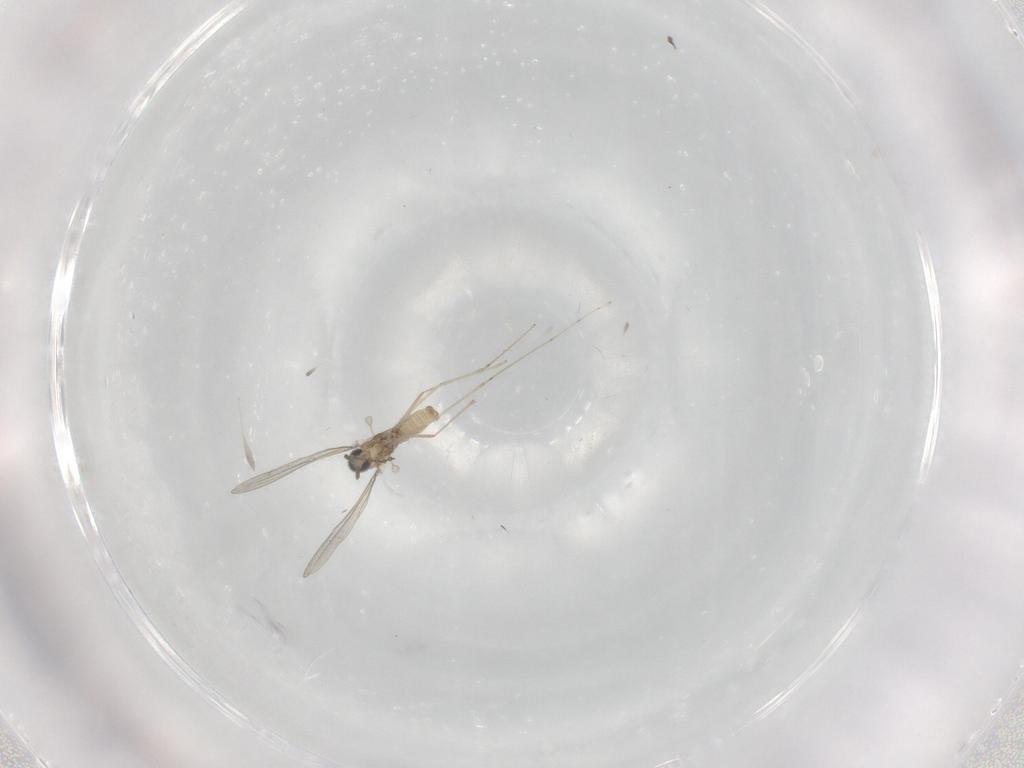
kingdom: Animalia
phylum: Arthropoda
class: Insecta
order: Diptera
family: Cecidomyiidae
